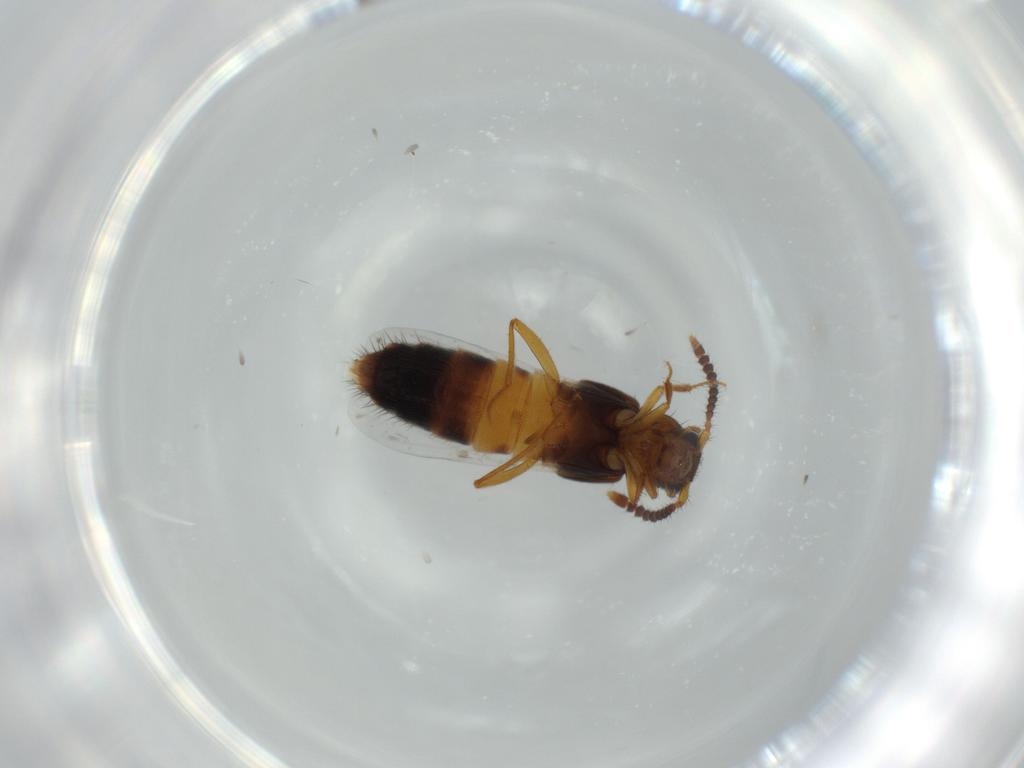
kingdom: Animalia
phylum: Arthropoda
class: Insecta
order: Coleoptera
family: Staphylinidae
